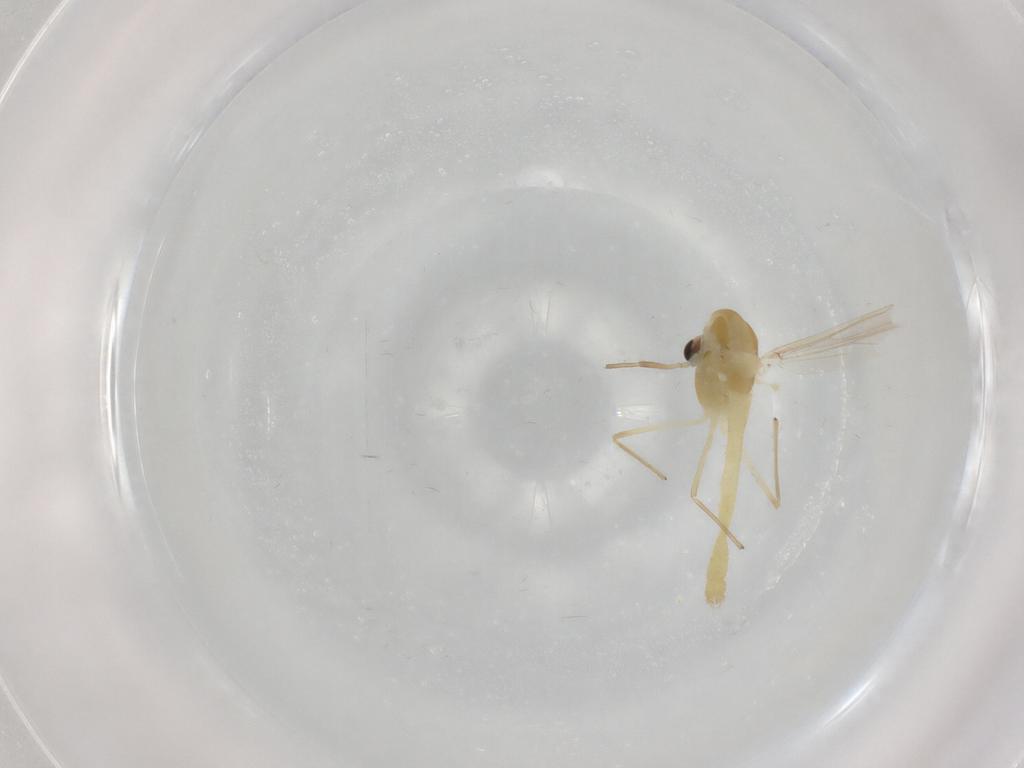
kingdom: Animalia
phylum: Arthropoda
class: Insecta
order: Diptera
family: Chironomidae
